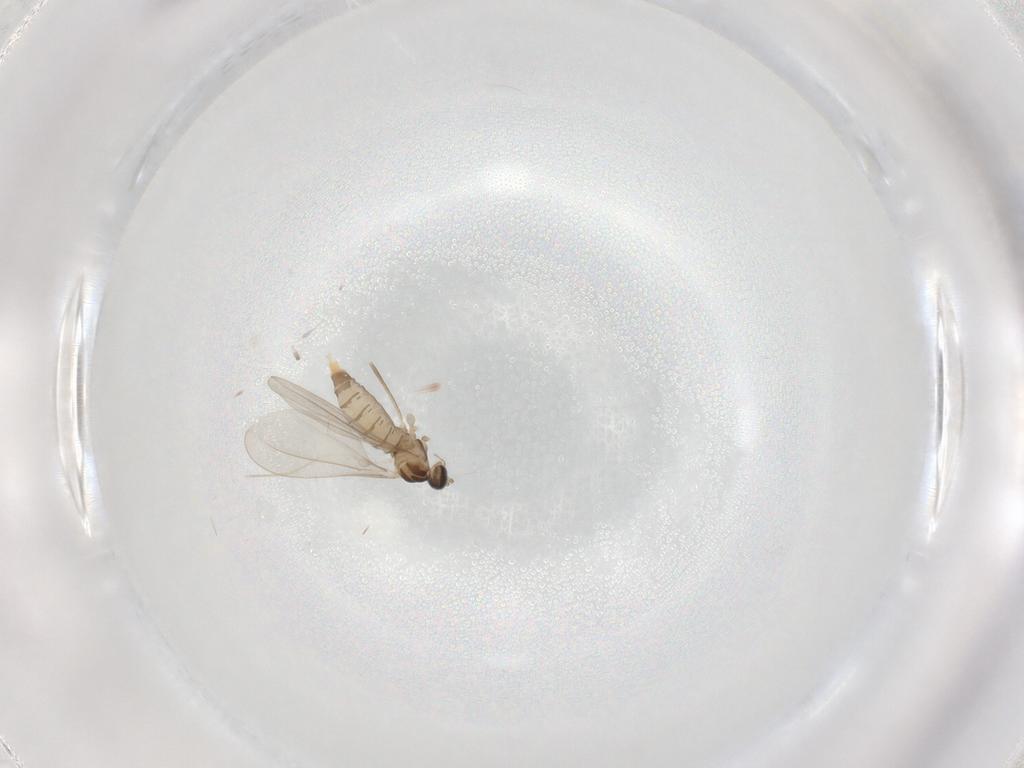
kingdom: Animalia
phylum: Arthropoda
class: Insecta
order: Diptera
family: Cecidomyiidae
